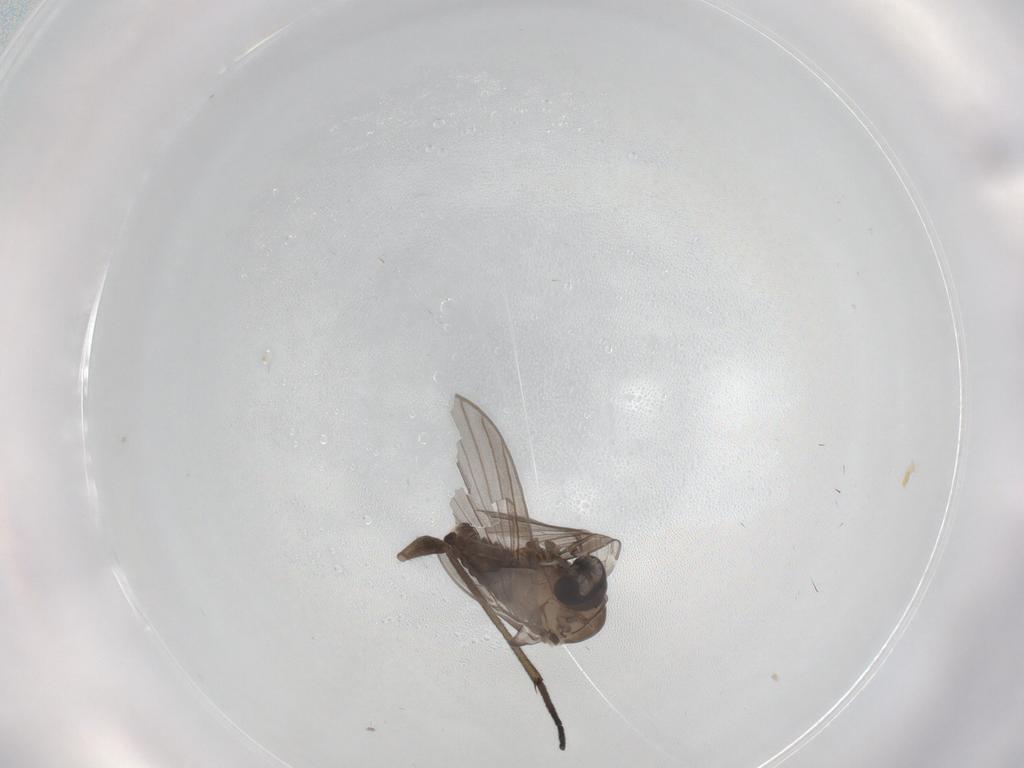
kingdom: Animalia
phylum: Arthropoda
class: Insecta
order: Diptera
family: Psychodidae
